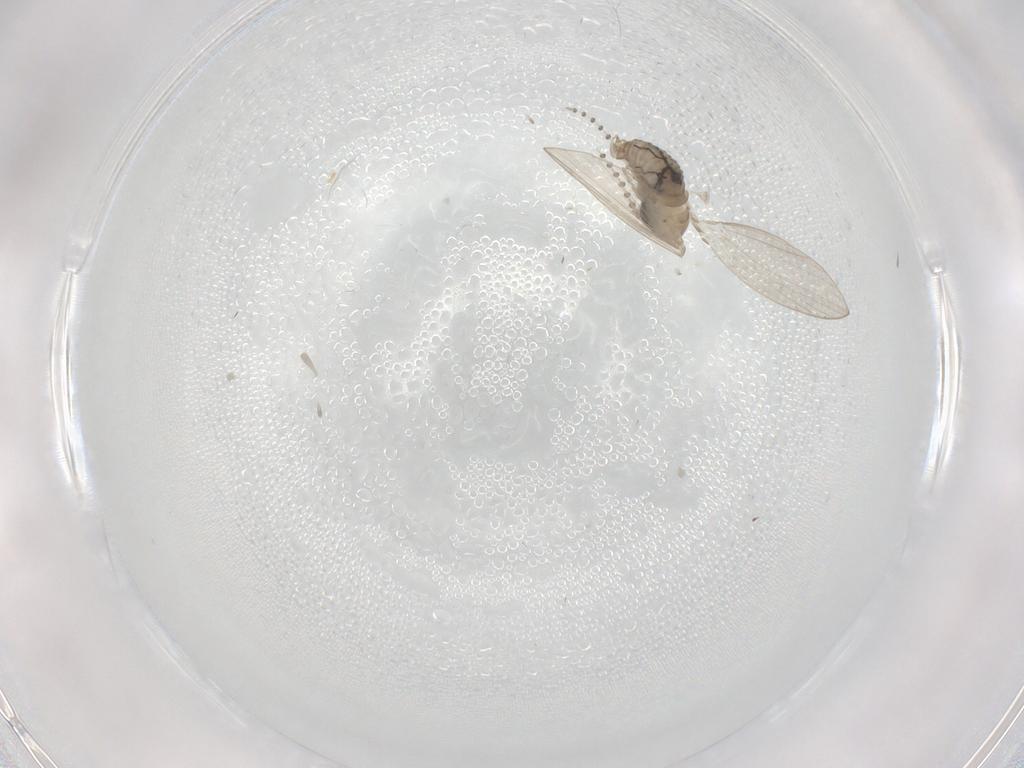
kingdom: Animalia
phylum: Arthropoda
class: Insecta
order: Diptera
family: Psychodidae
